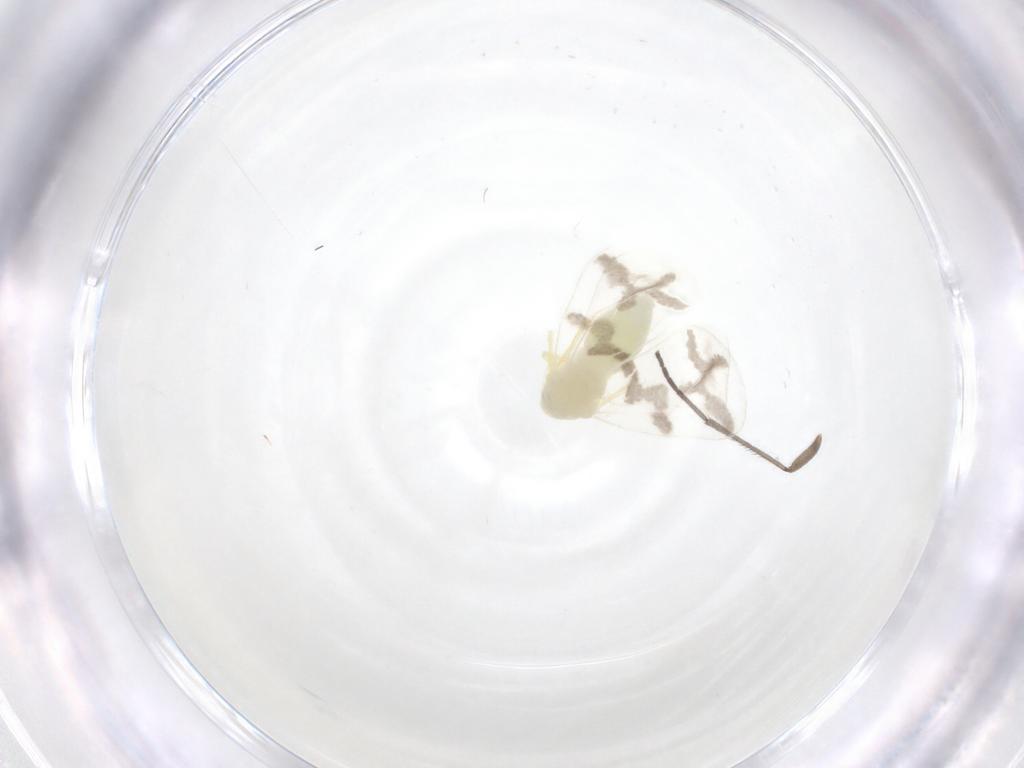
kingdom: Animalia
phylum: Arthropoda
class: Insecta
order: Hemiptera
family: Aleyrodidae
